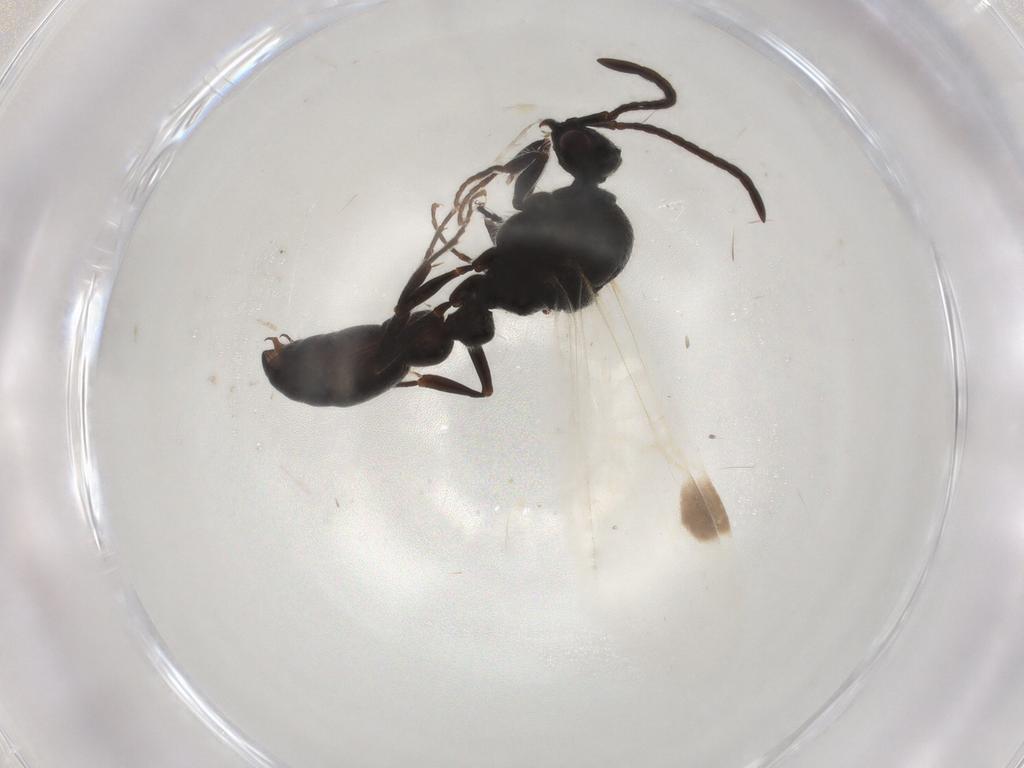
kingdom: Animalia
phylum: Arthropoda
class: Insecta
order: Hymenoptera
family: Formicidae
